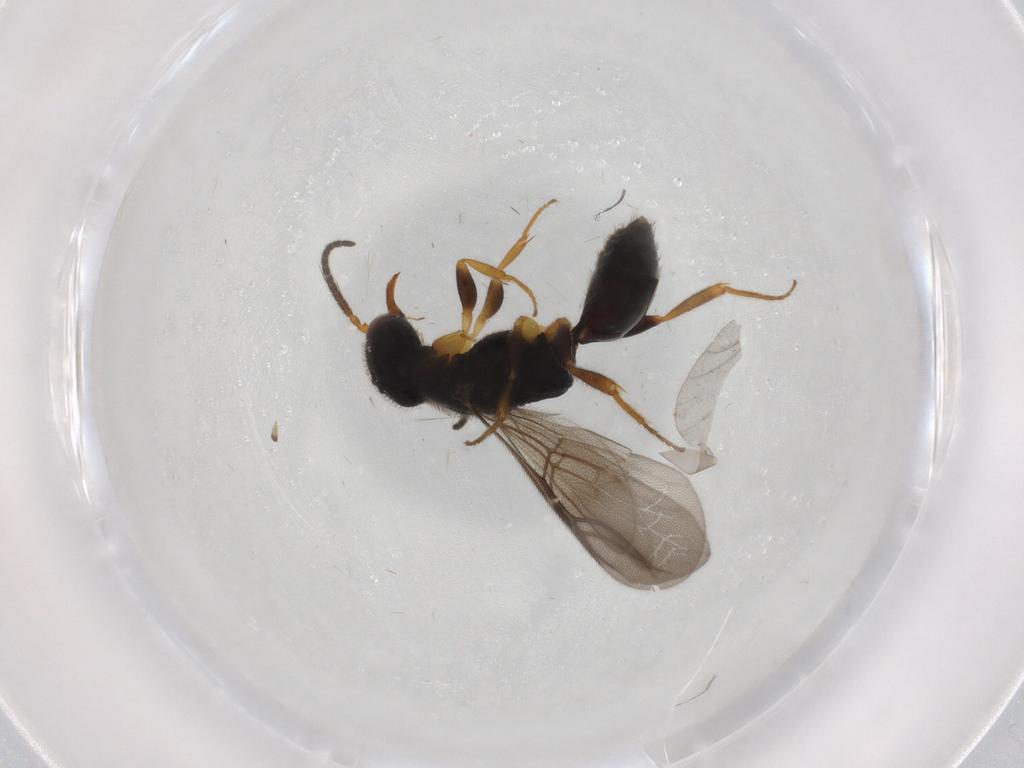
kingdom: Animalia
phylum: Arthropoda
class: Insecta
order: Hymenoptera
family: Bethylidae
